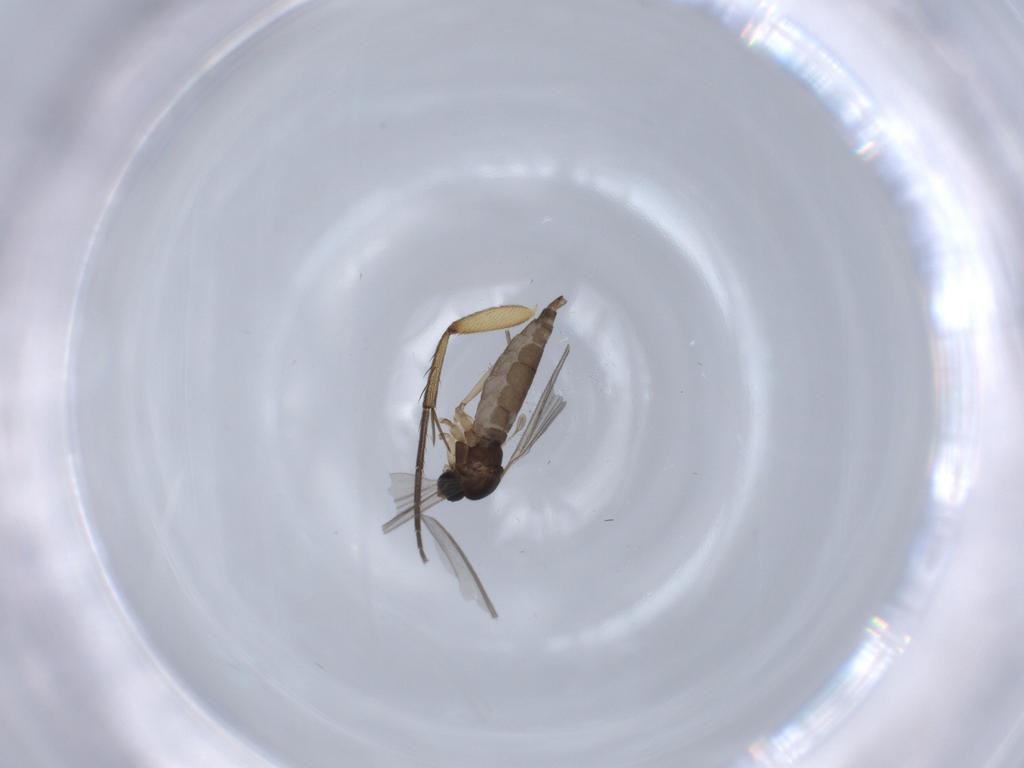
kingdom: Animalia
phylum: Arthropoda
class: Insecta
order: Diptera
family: Sciaridae
